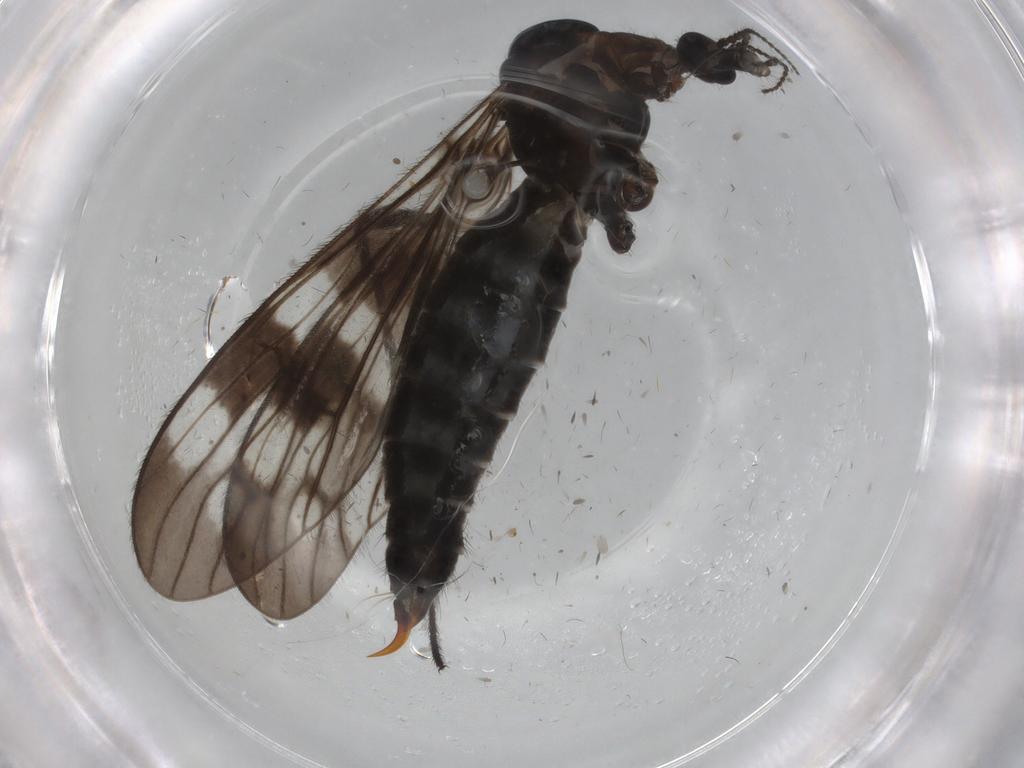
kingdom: Animalia
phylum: Arthropoda
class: Insecta
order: Diptera
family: Limoniidae
